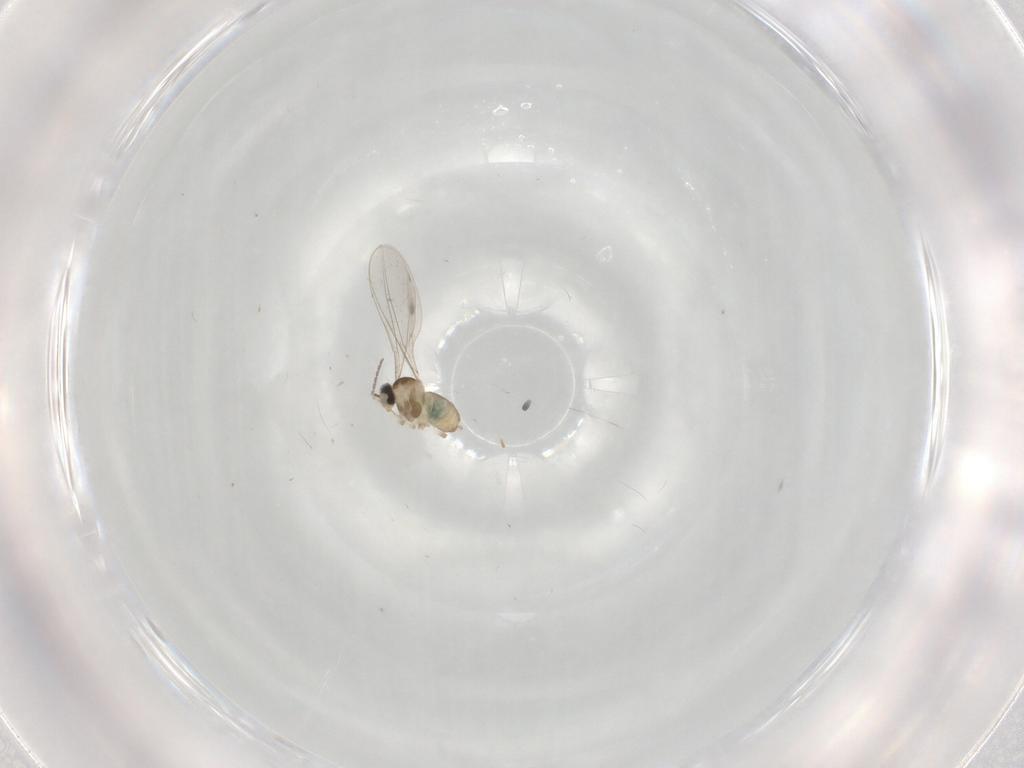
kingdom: Animalia
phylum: Arthropoda
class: Insecta
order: Diptera
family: Cecidomyiidae
